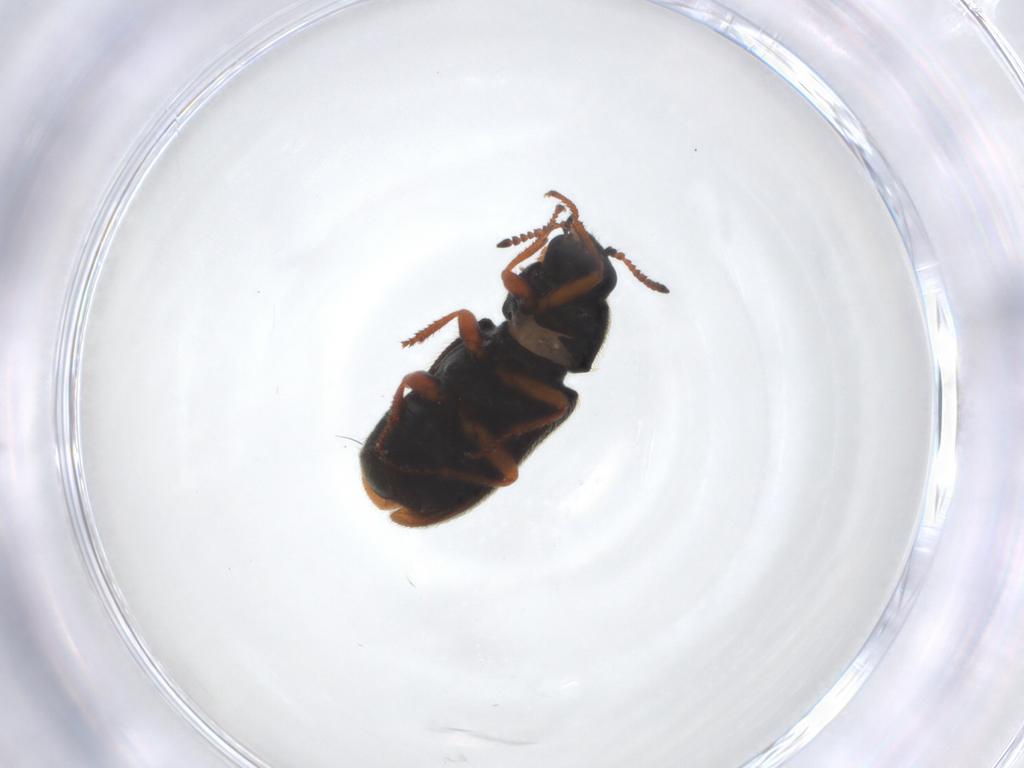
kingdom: Animalia
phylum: Arthropoda
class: Insecta
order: Coleoptera
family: Melyridae
